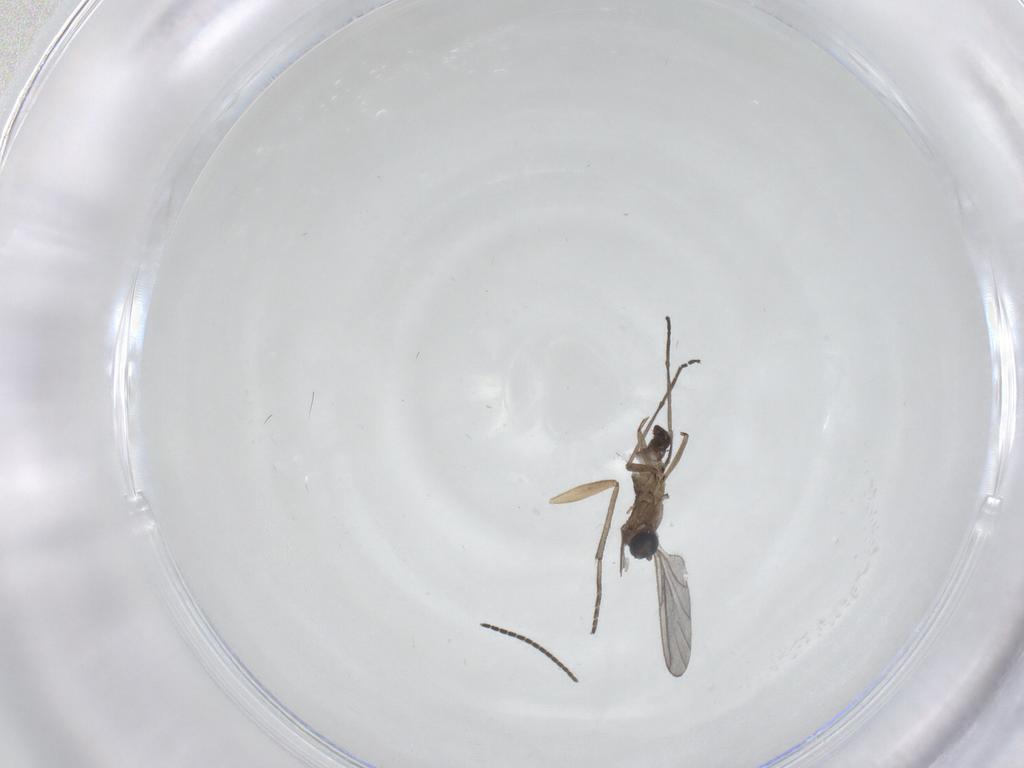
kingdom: Animalia
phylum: Arthropoda
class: Insecta
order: Diptera
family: Sciaridae
